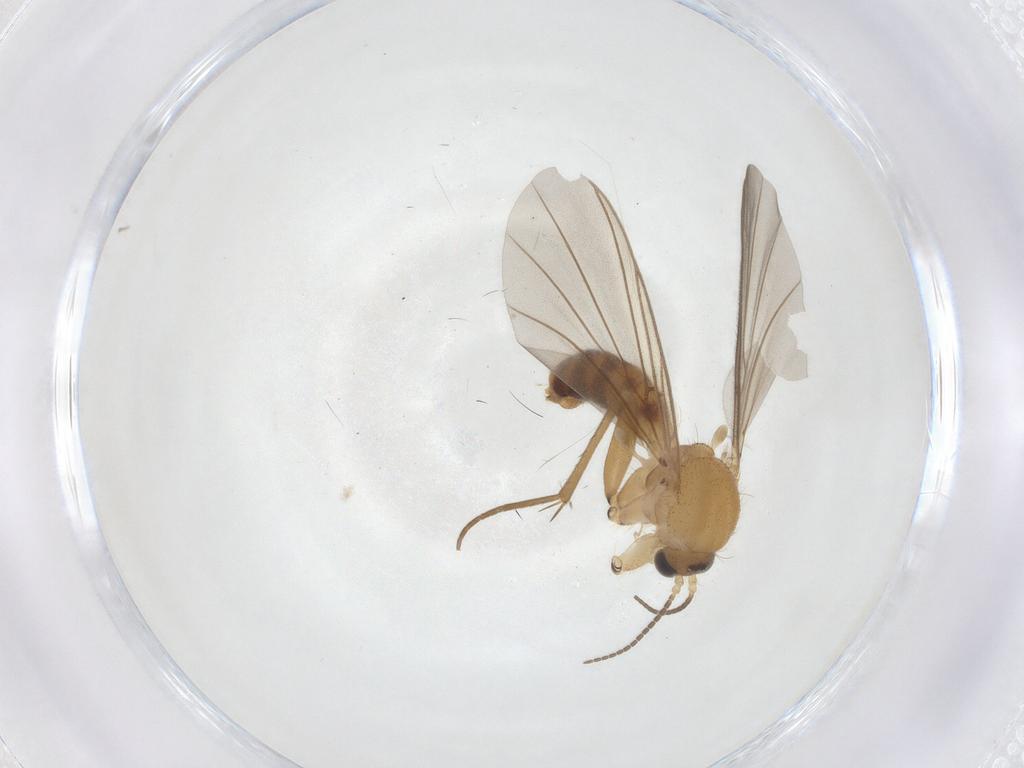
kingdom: Animalia
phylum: Arthropoda
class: Insecta
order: Diptera
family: Mycetophilidae
